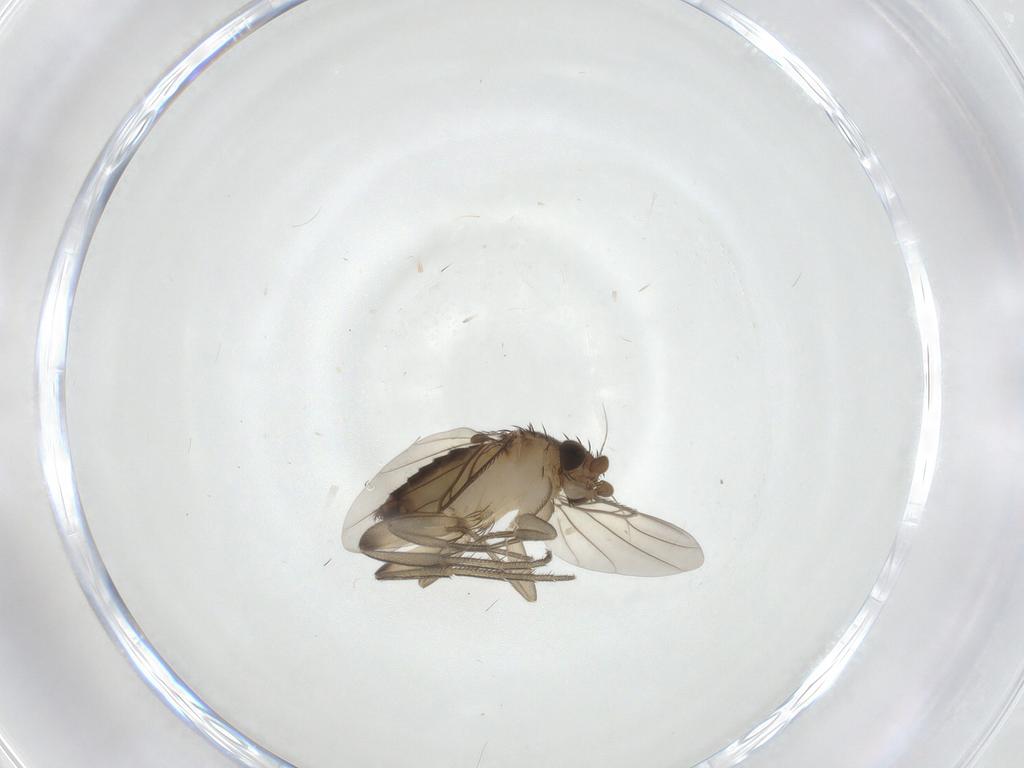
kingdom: Animalia
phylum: Arthropoda
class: Insecta
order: Diptera
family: Phoridae
